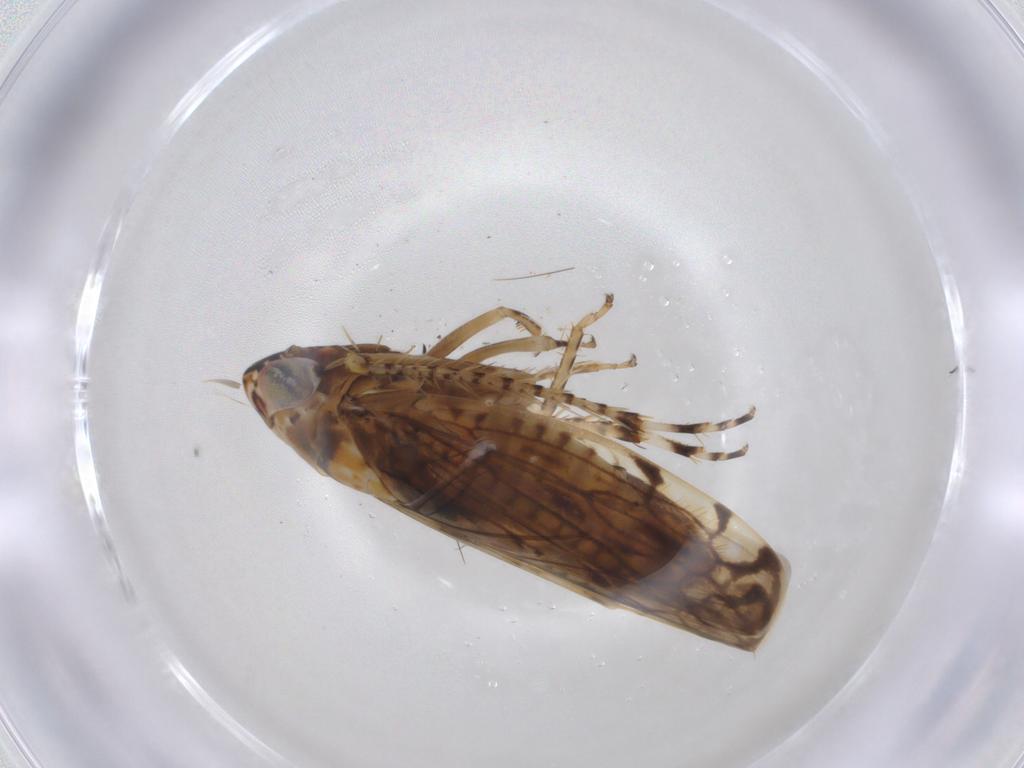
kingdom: Animalia
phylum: Arthropoda
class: Insecta
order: Hemiptera
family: Cicadellidae
